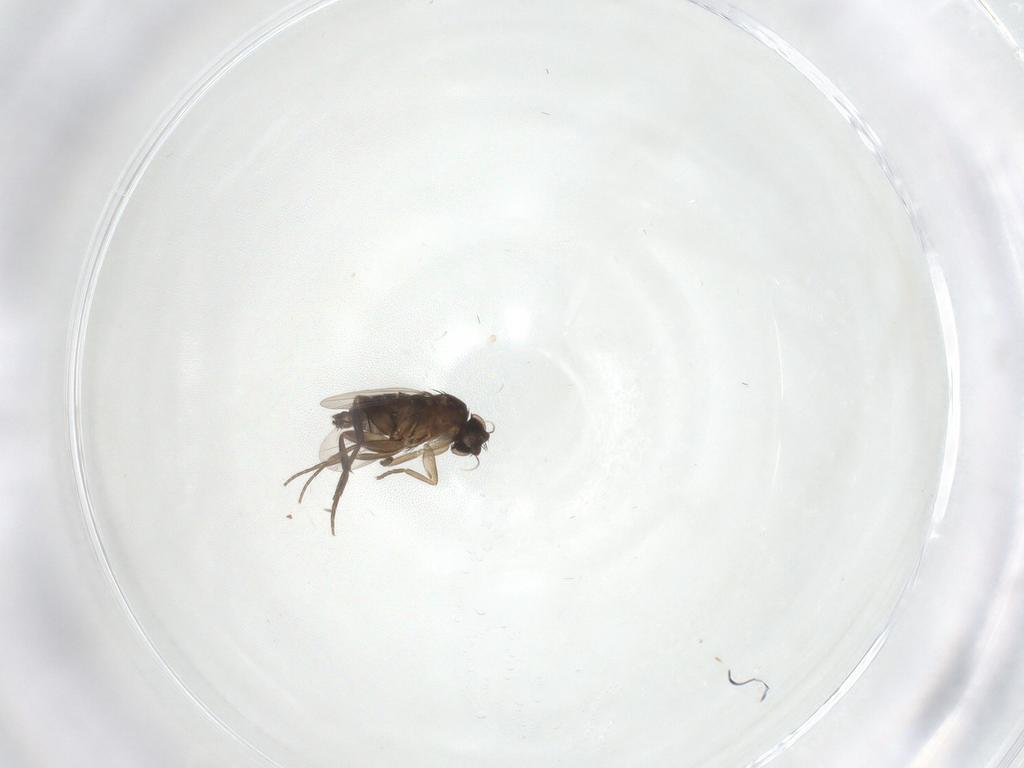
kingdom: Animalia
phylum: Arthropoda
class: Insecta
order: Diptera
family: Phoridae
